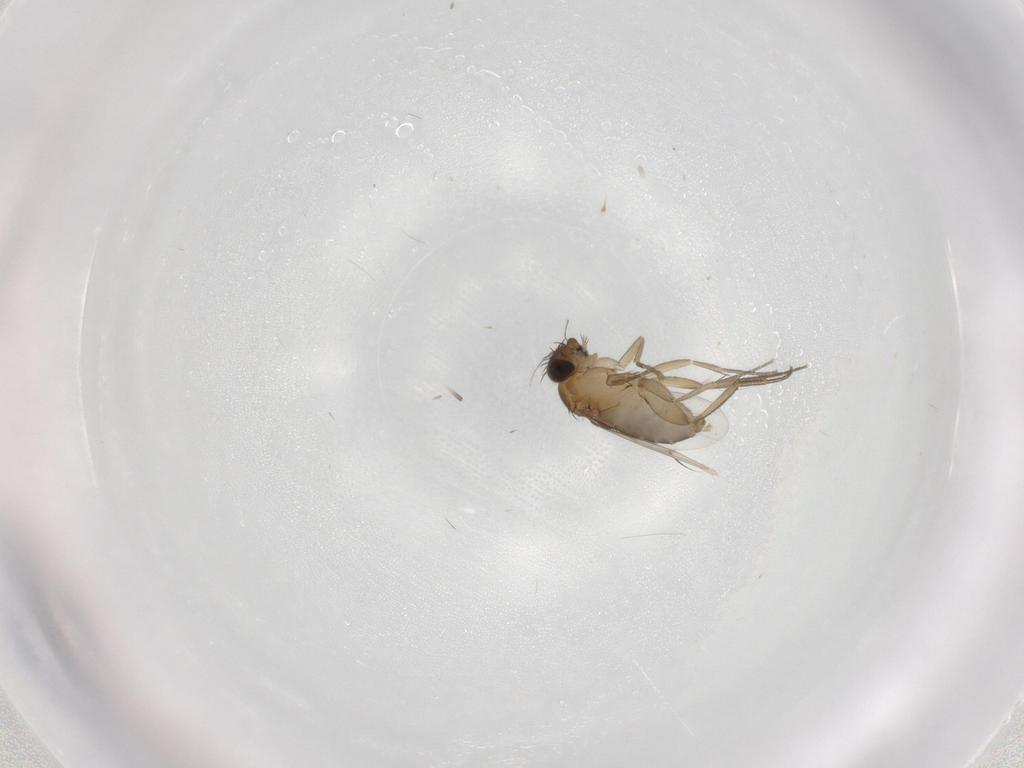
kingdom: Animalia
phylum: Arthropoda
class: Insecta
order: Diptera
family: Phoridae
